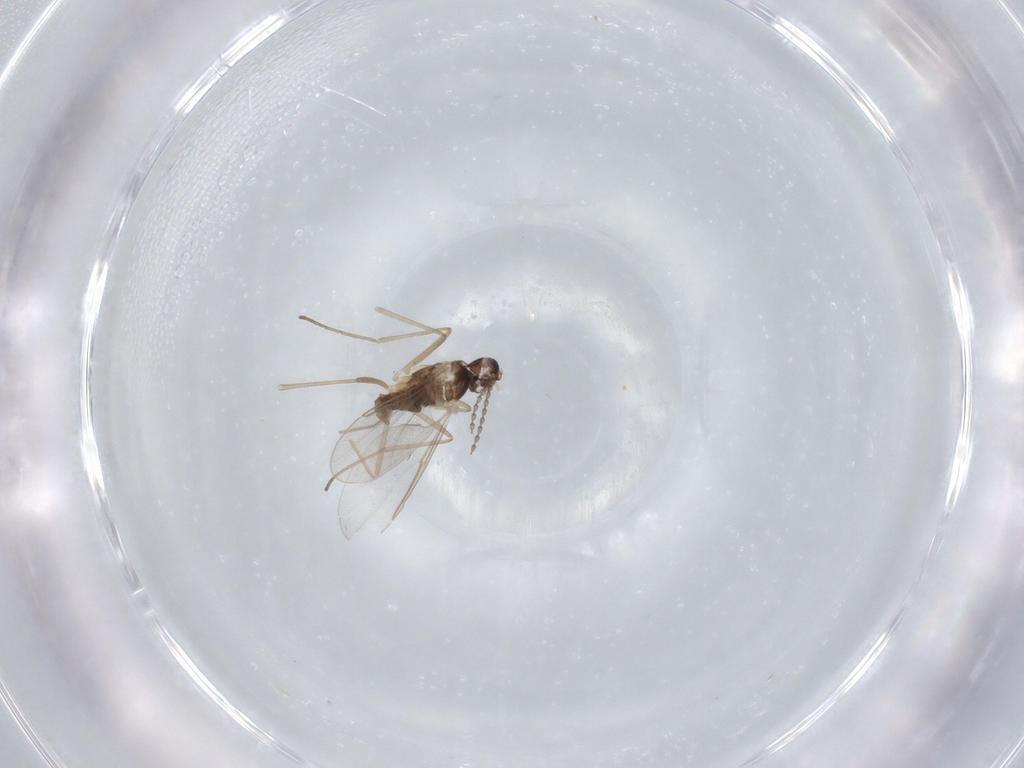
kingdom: Animalia
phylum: Arthropoda
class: Insecta
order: Diptera
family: Cecidomyiidae
